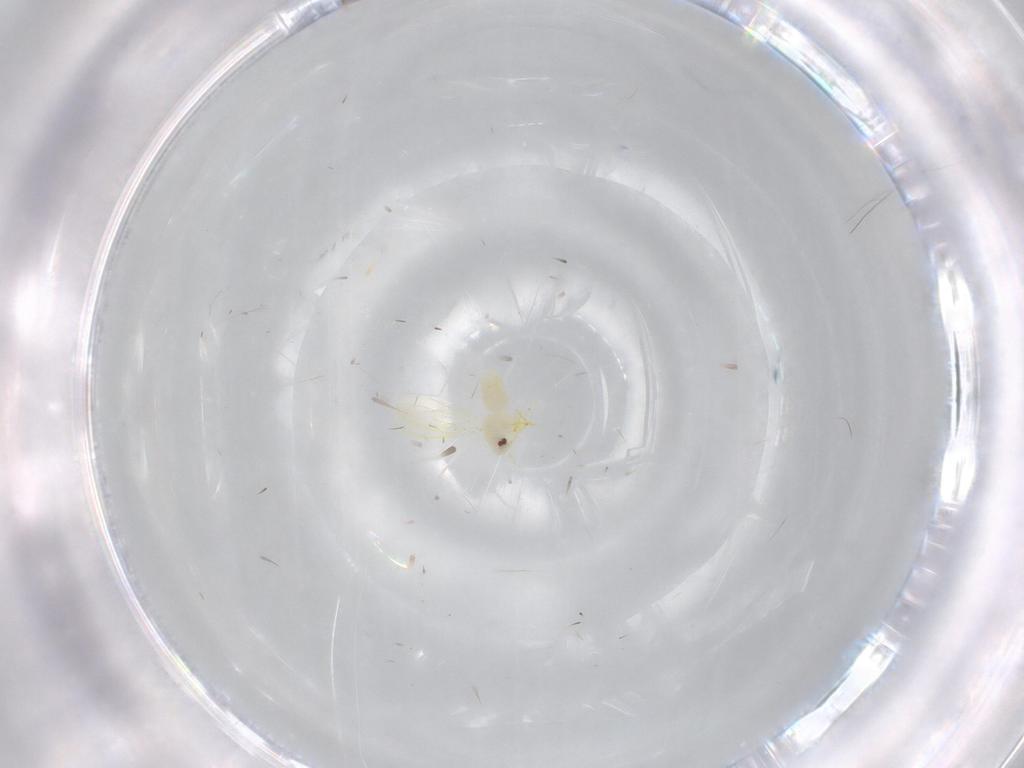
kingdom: Animalia
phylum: Arthropoda
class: Insecta
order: Hemiptera
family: Aleyrodidae
